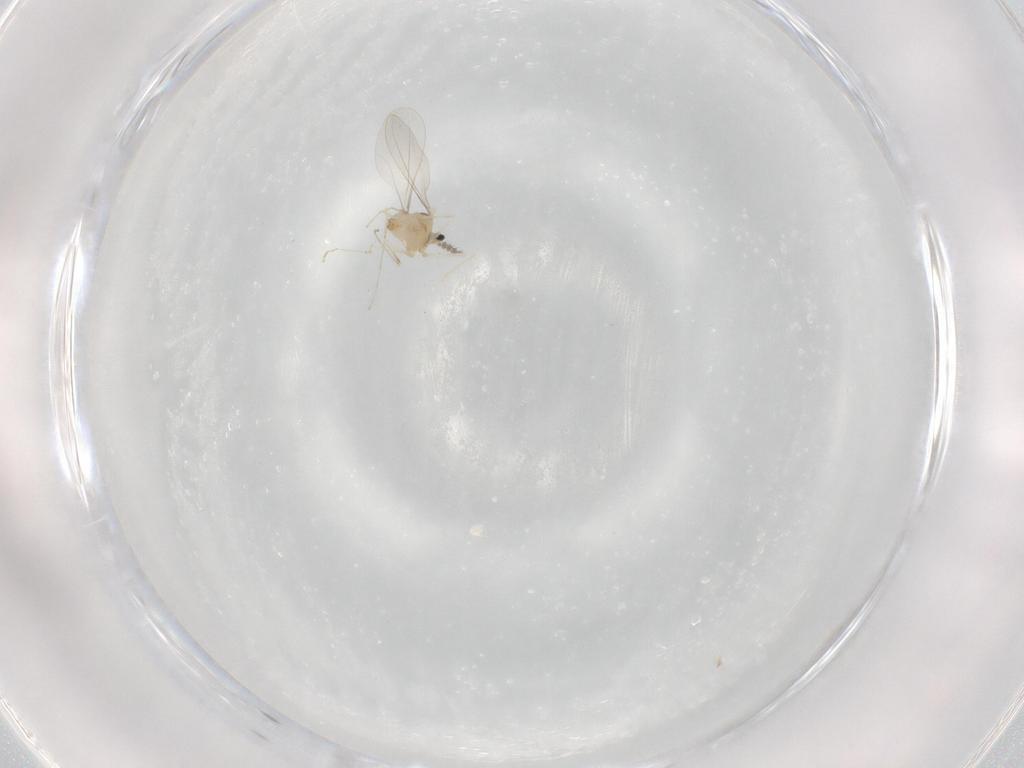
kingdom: Animalia
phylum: Arthropoda
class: Insecta
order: Diptera
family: Cecidomyiidae
